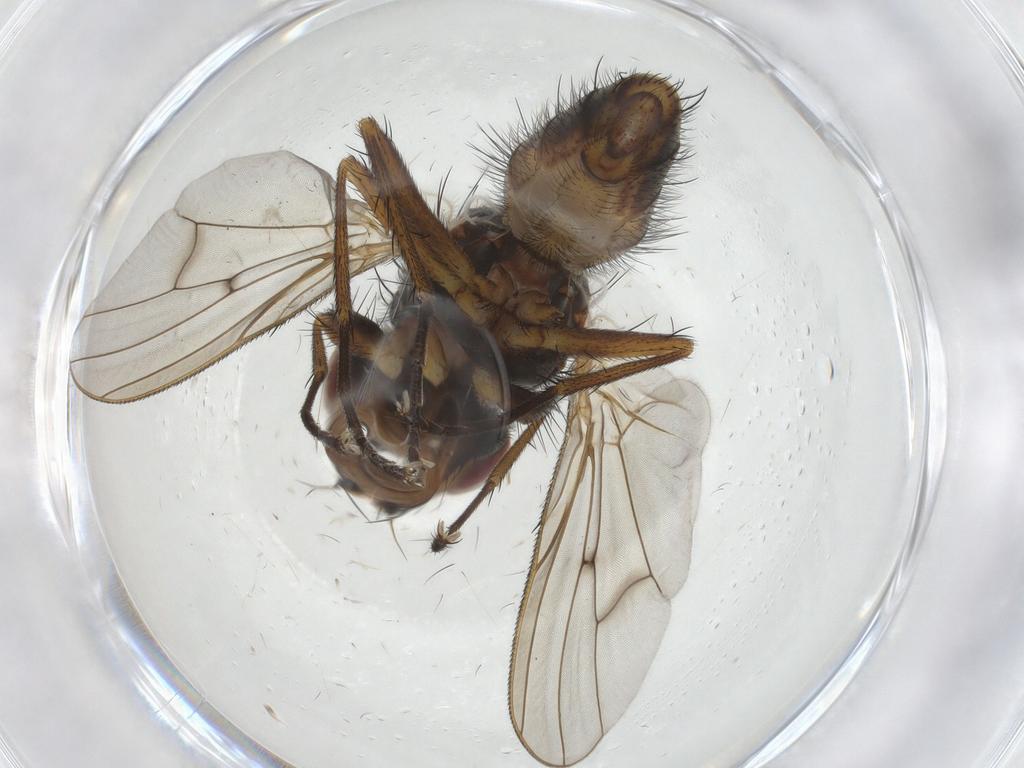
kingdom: Animalia
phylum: Arthropoda
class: Insecta
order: Diptera
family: Anthomyiidae
